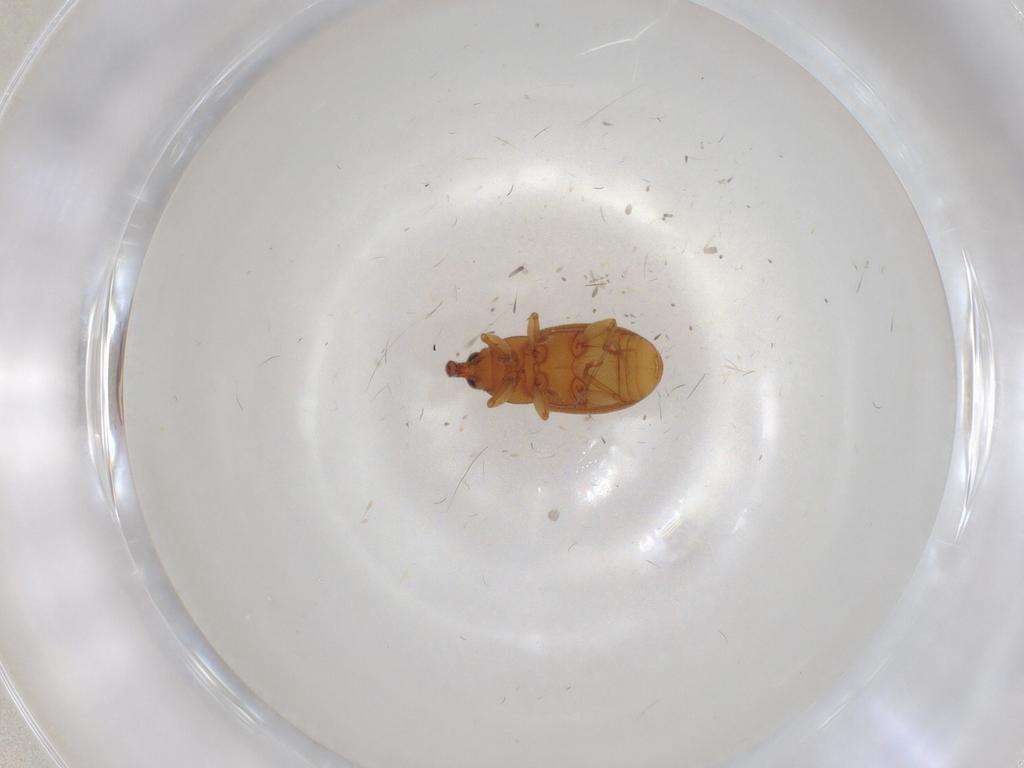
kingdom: Animalia
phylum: Arthropoda
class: Insecta
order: Coleoptera
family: Curculionidae
